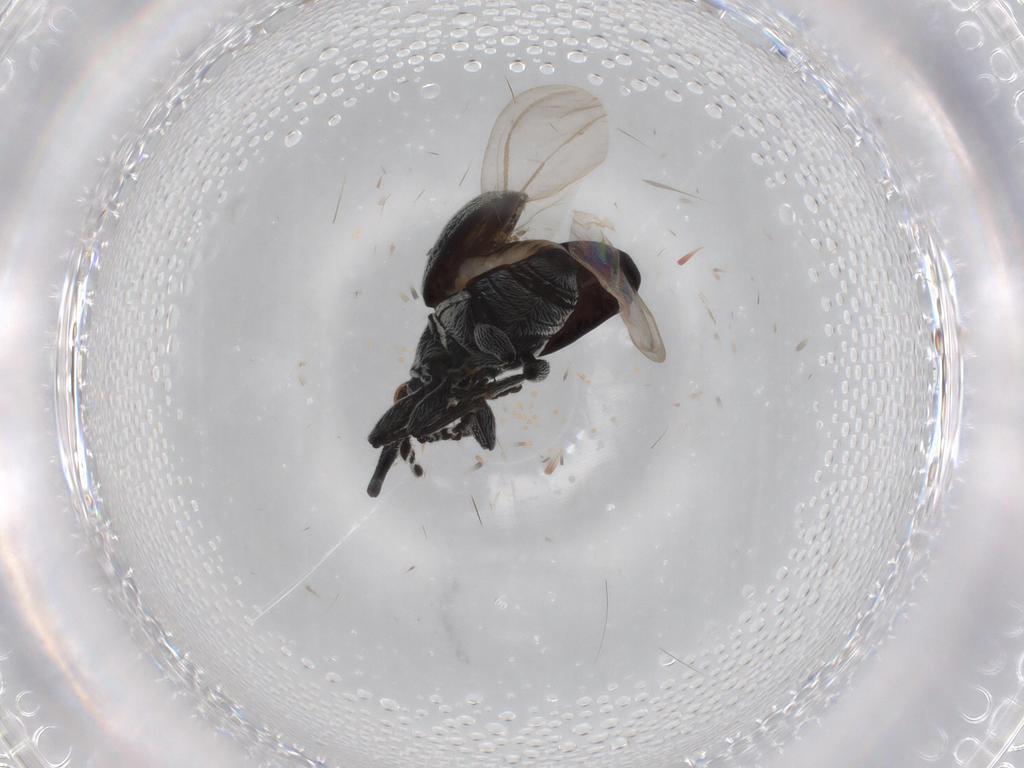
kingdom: Animalia
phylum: Arthropoda
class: Insecta
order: Coleoptera
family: Brentidae
